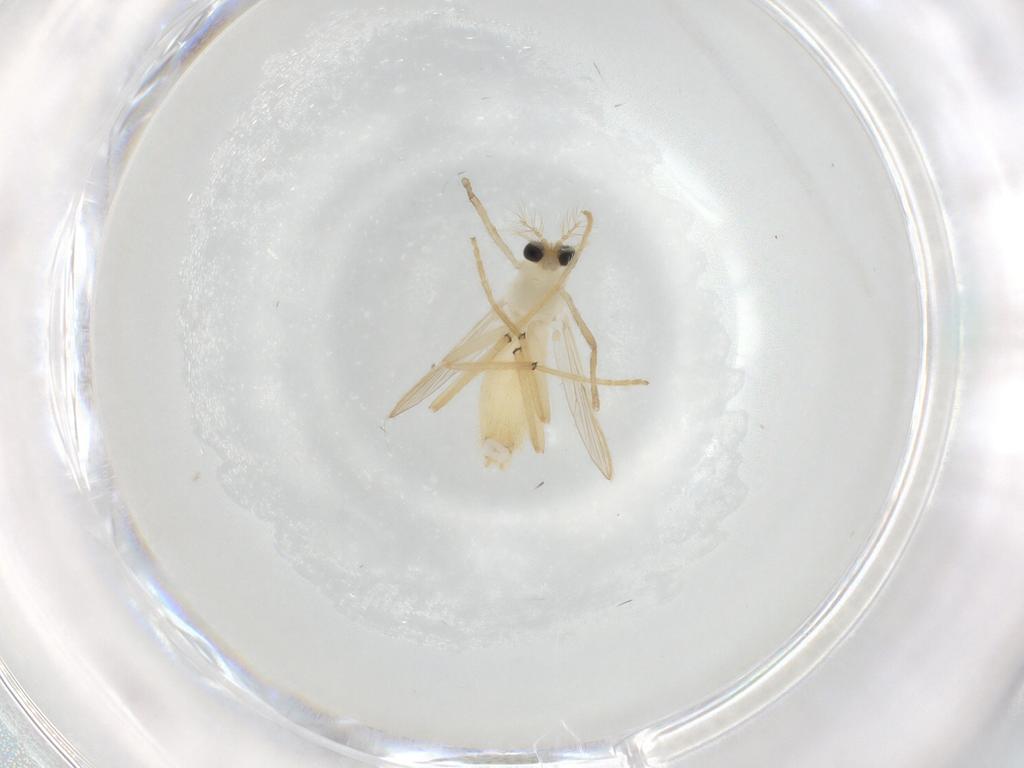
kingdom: Animalia
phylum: Arthropoda
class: Insecta
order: Diptera
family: Chironomidae
